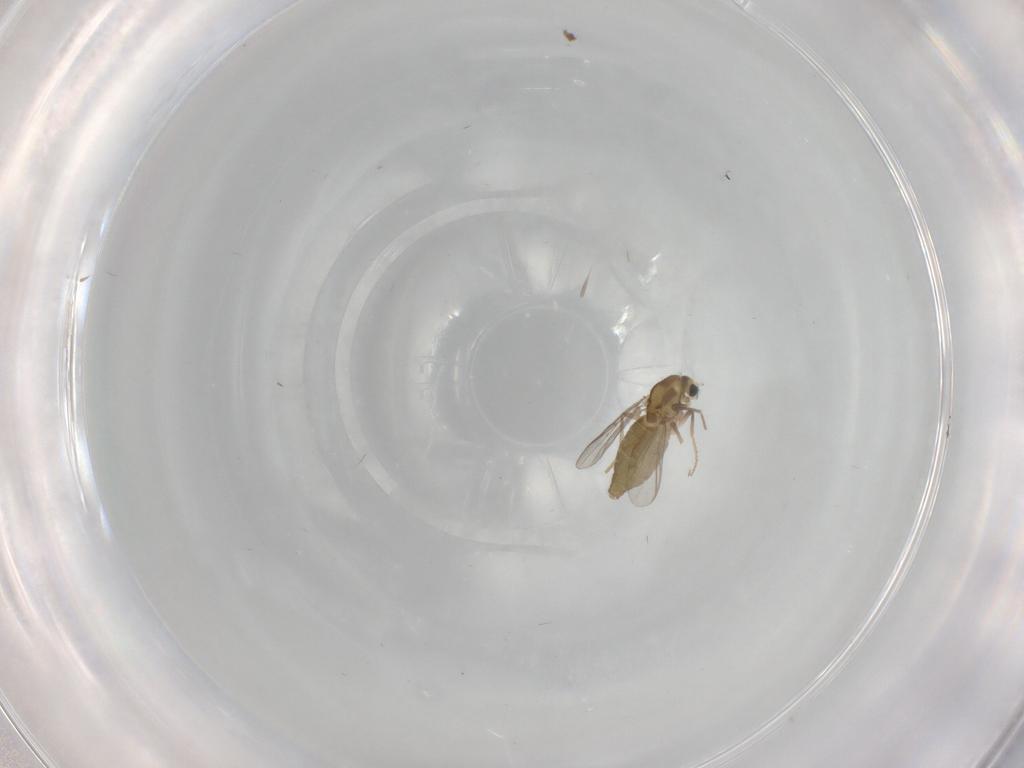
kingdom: Animalia
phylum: Arthropoda
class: Insecta
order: Diptera
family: Chironomidae
